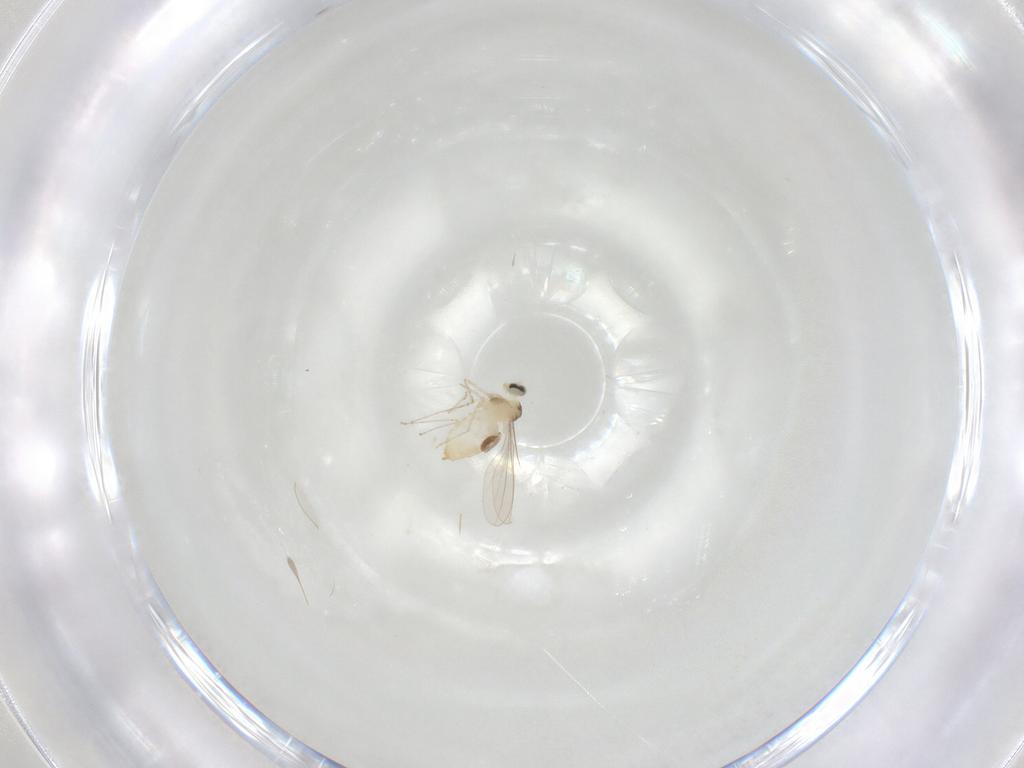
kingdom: Animalia
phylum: Arthropoda
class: Insecta
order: Diptera
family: Cecidomyiidae
